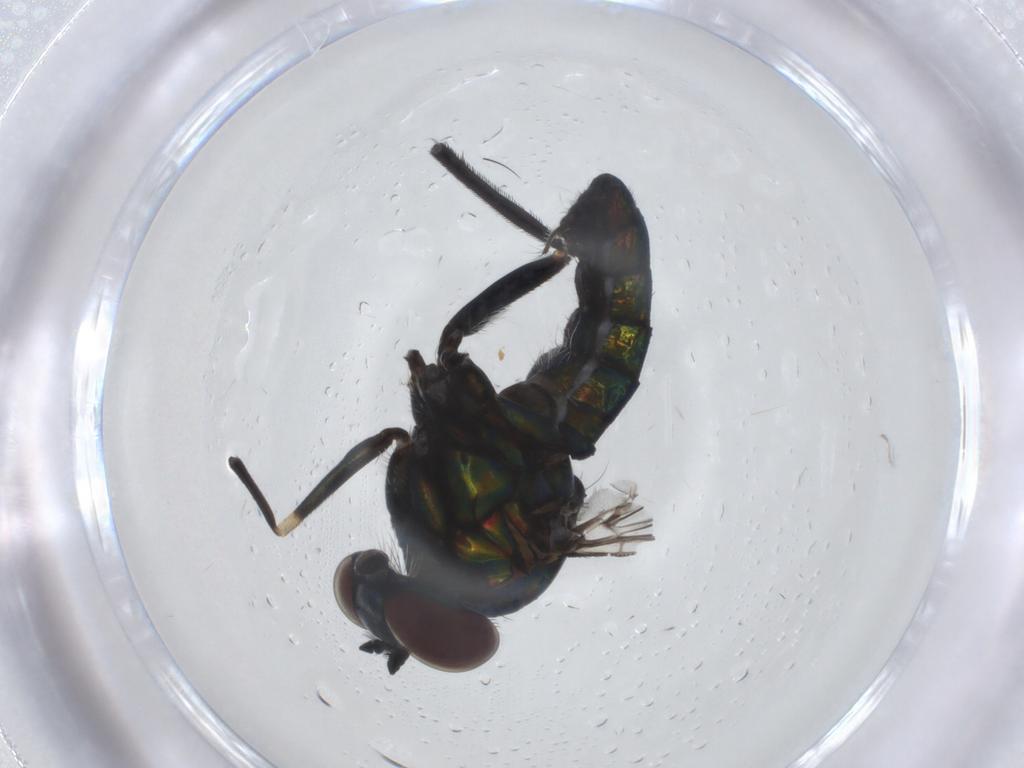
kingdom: Animalia
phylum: Arthropoda
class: Insecta
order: Diptera
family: Dolichopodidae
